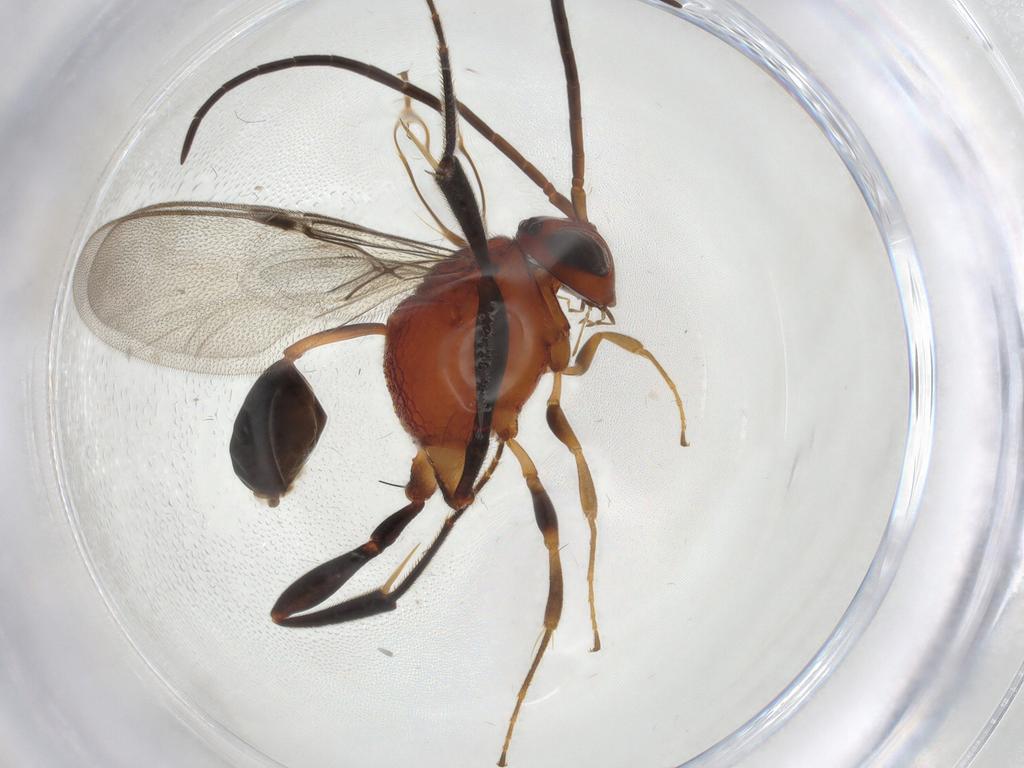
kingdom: Animalia
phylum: Arthropoda
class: Insecta
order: Hymenoptera
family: Evaniidae
